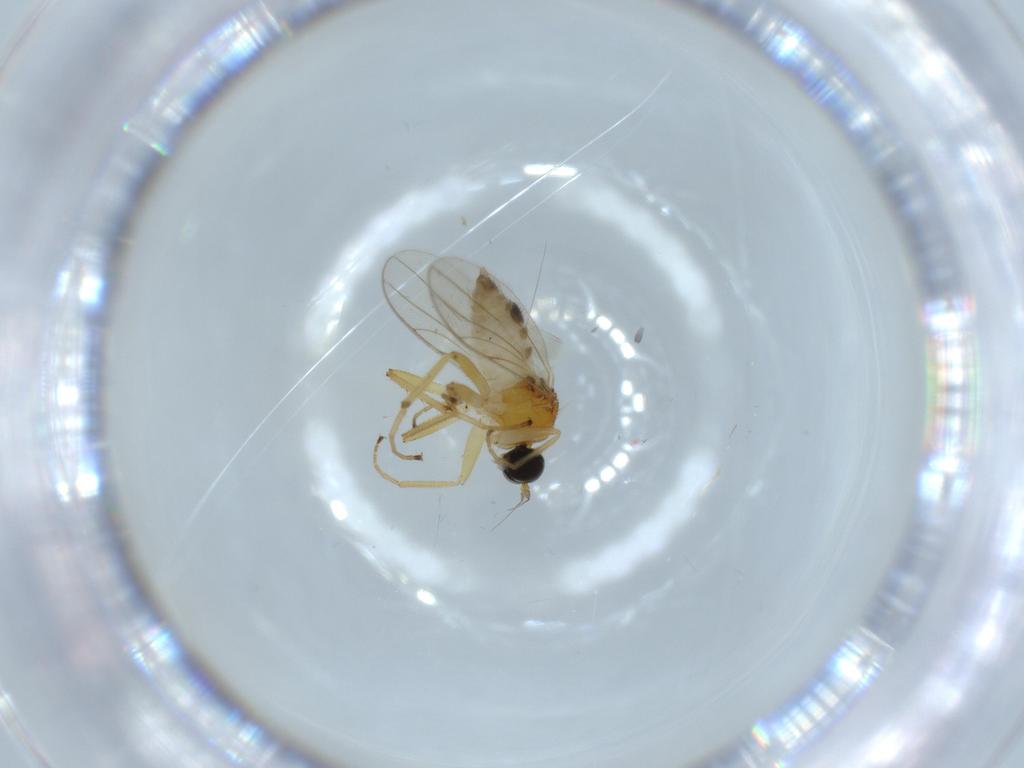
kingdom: Animalia
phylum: Arthropoda
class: Insecta
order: Diptera
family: Hybotidae
